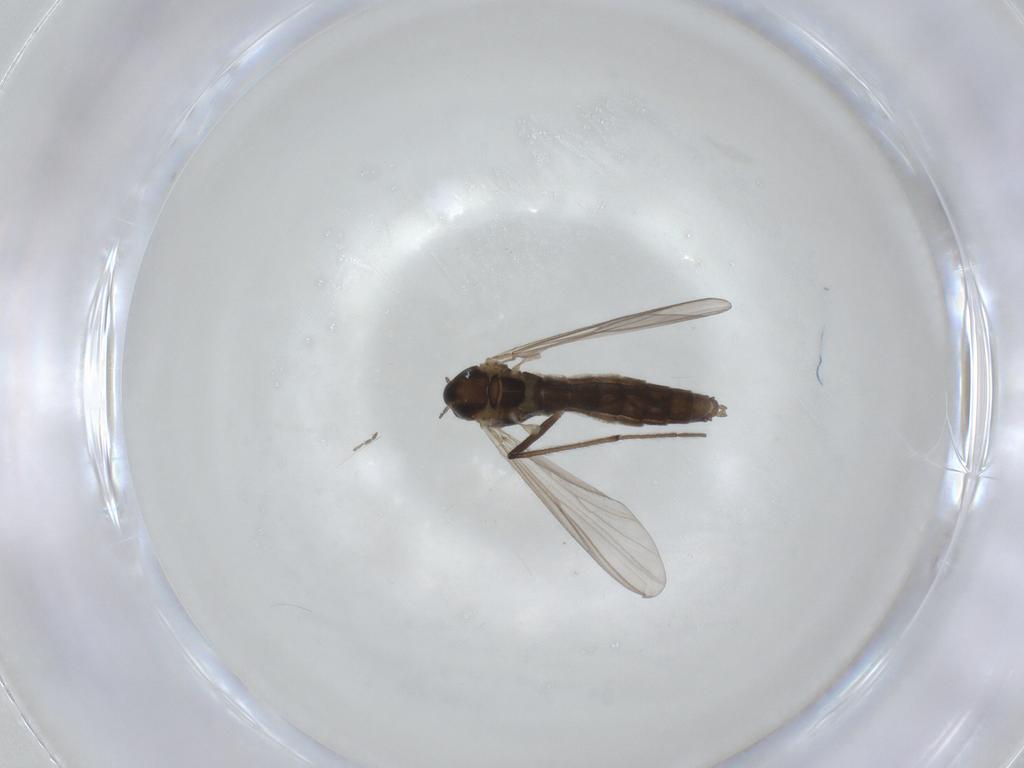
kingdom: Animalia
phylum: Arthropoda
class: Insecta
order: Diptera
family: Chironomidae
